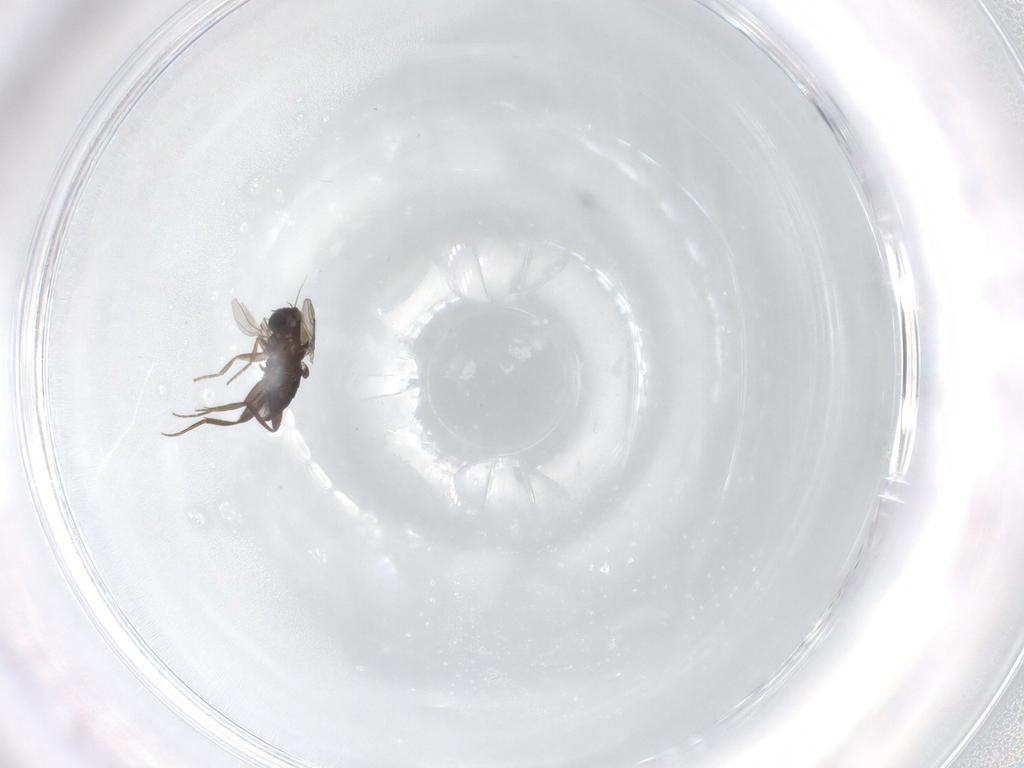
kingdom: Animalia
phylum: Arthropoda
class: Insecta
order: Diptera
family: Phoridae
